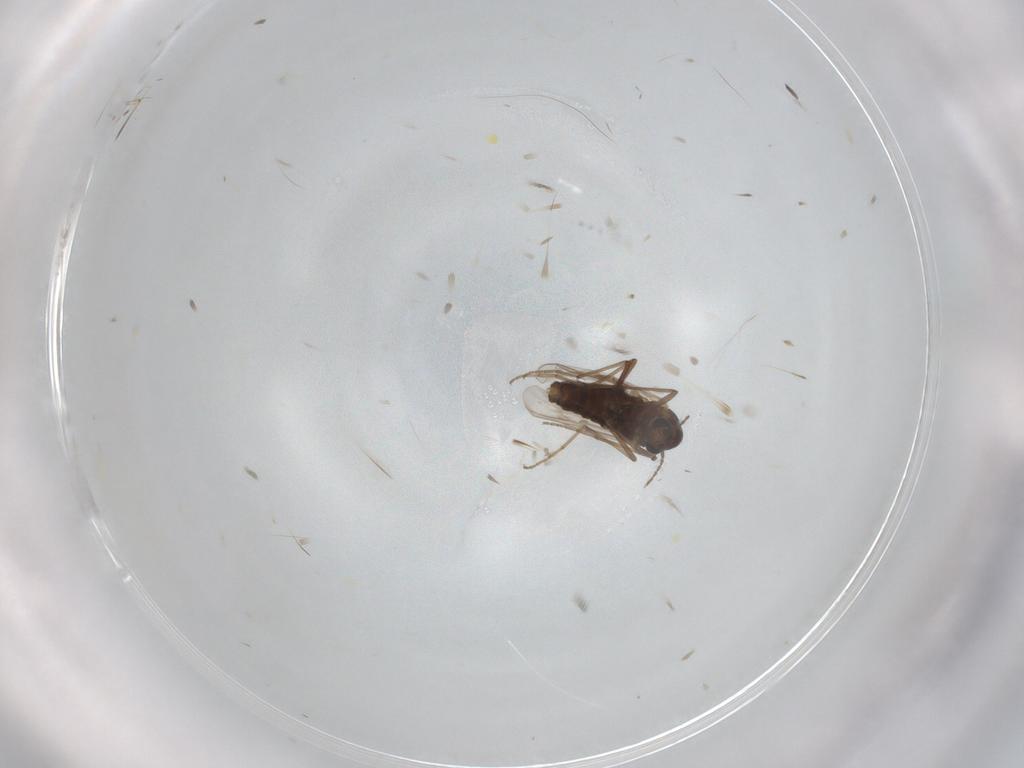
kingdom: Animalia
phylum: Arthropoda
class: Insecta
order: Diptera
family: Chironomidae
